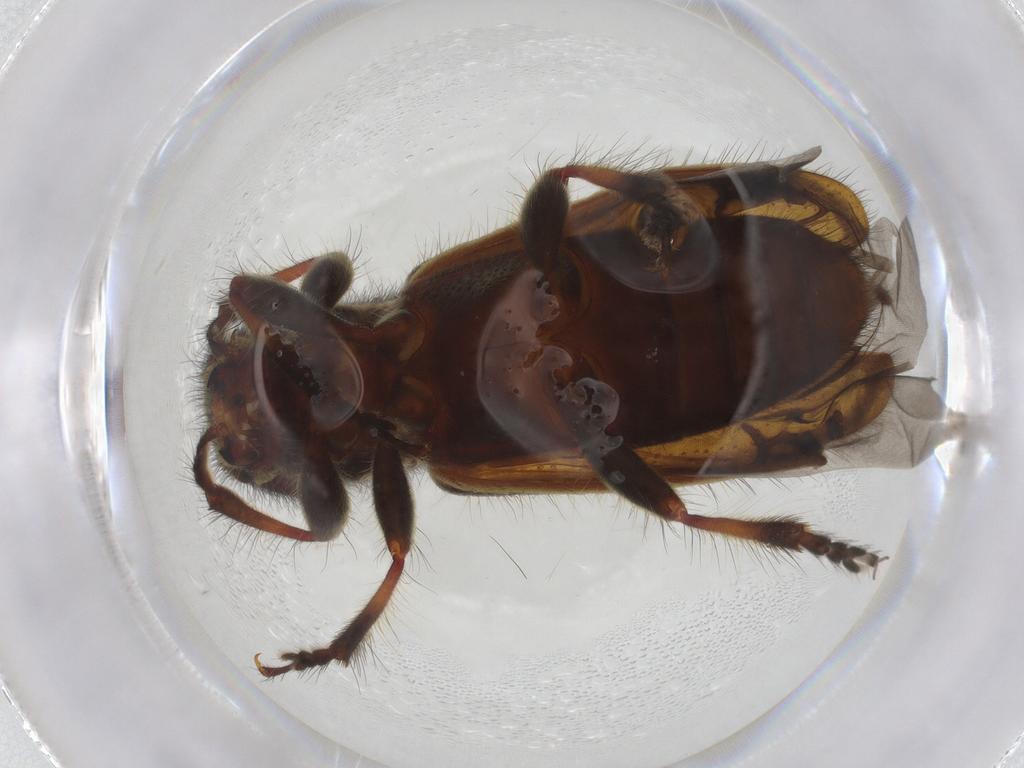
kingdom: Animalia
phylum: Arthropoda
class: Insecta
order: Coleoptera
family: Cerambycidae
